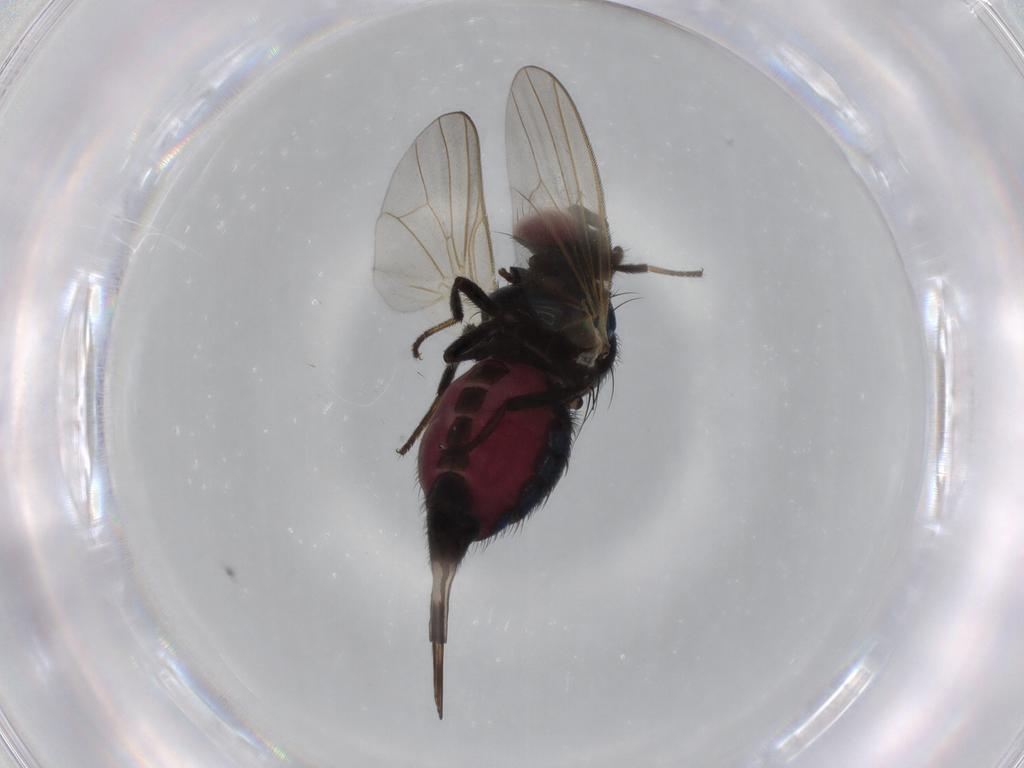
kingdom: Animalia
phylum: Arthropoda
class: Insecta
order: Diptera
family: Lonchaeidae
